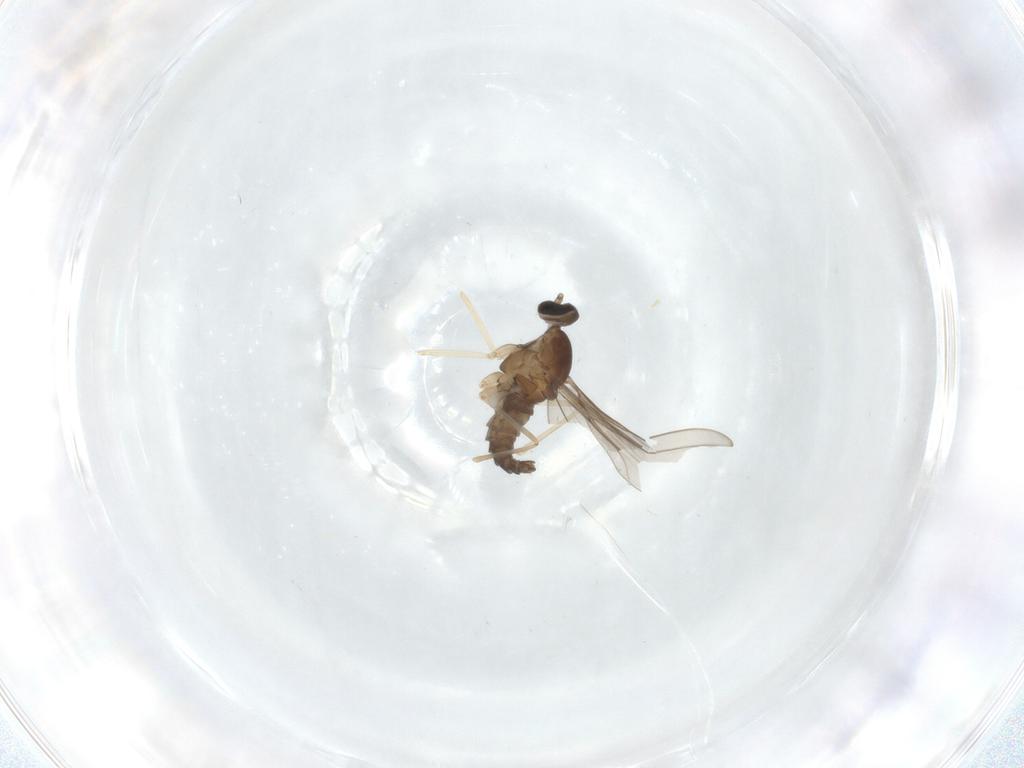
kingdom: Animalia
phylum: Arthropoda
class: Insecta
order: Diptera
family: Cecidomyiidae
